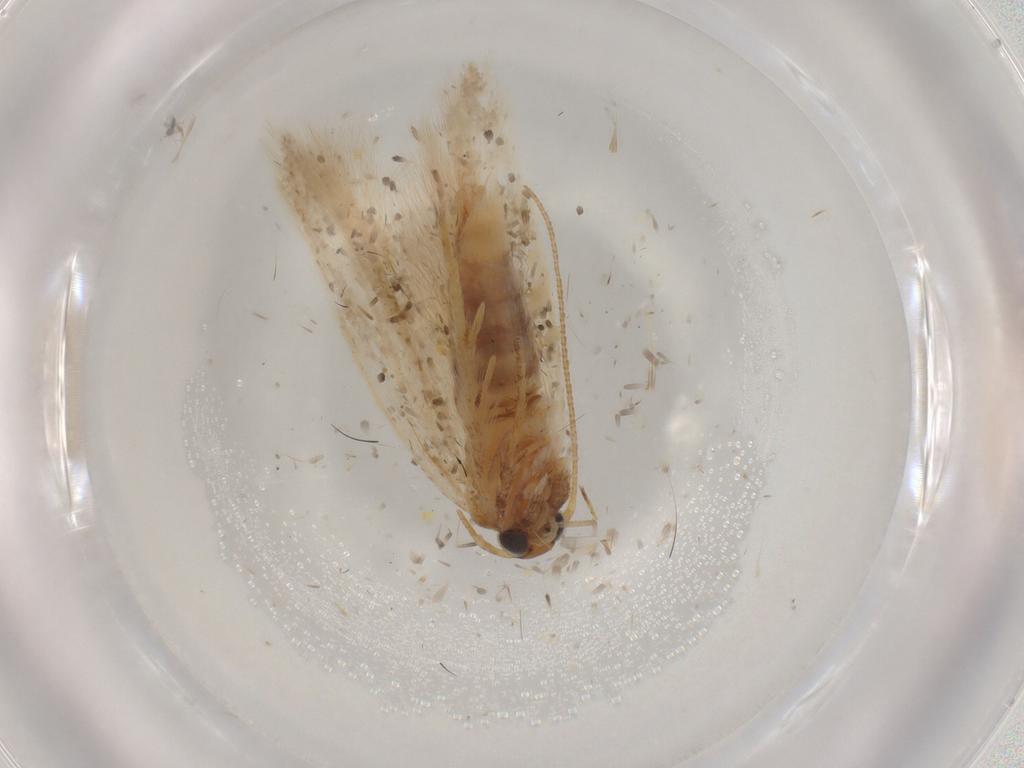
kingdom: Animalia
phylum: Arthropoda
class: Insecta
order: Lepidoptera
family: Gelechiidae
